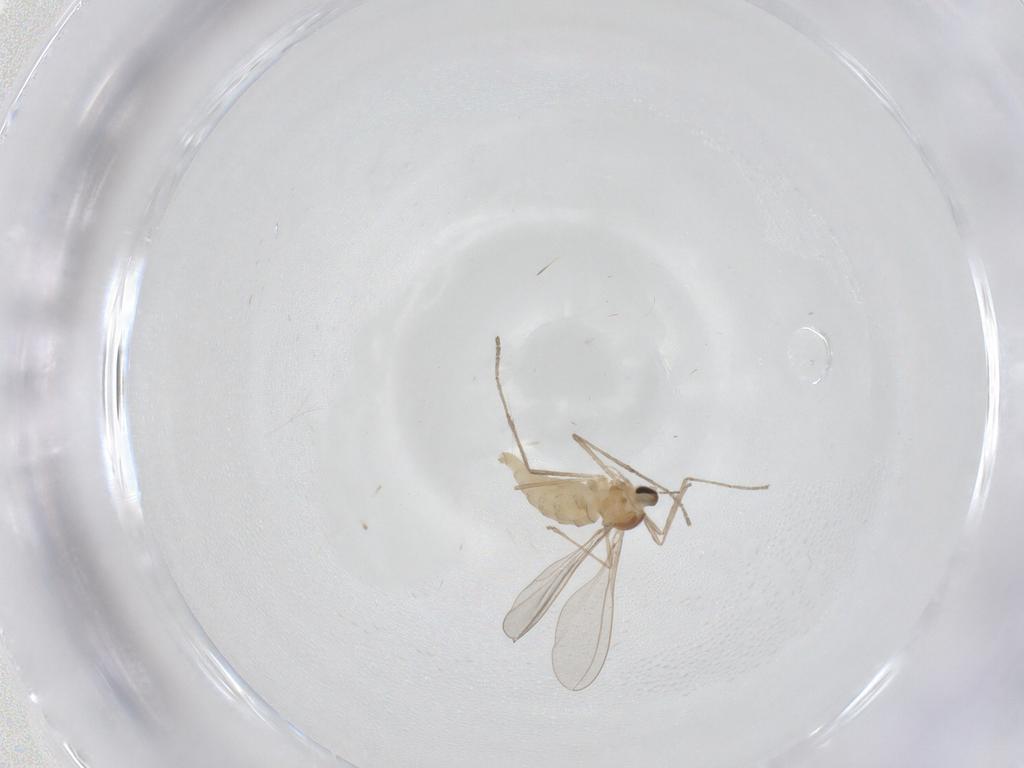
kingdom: Animalia
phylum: Arthropoda
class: Insecta
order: Diptera
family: Cecidomyiidae
